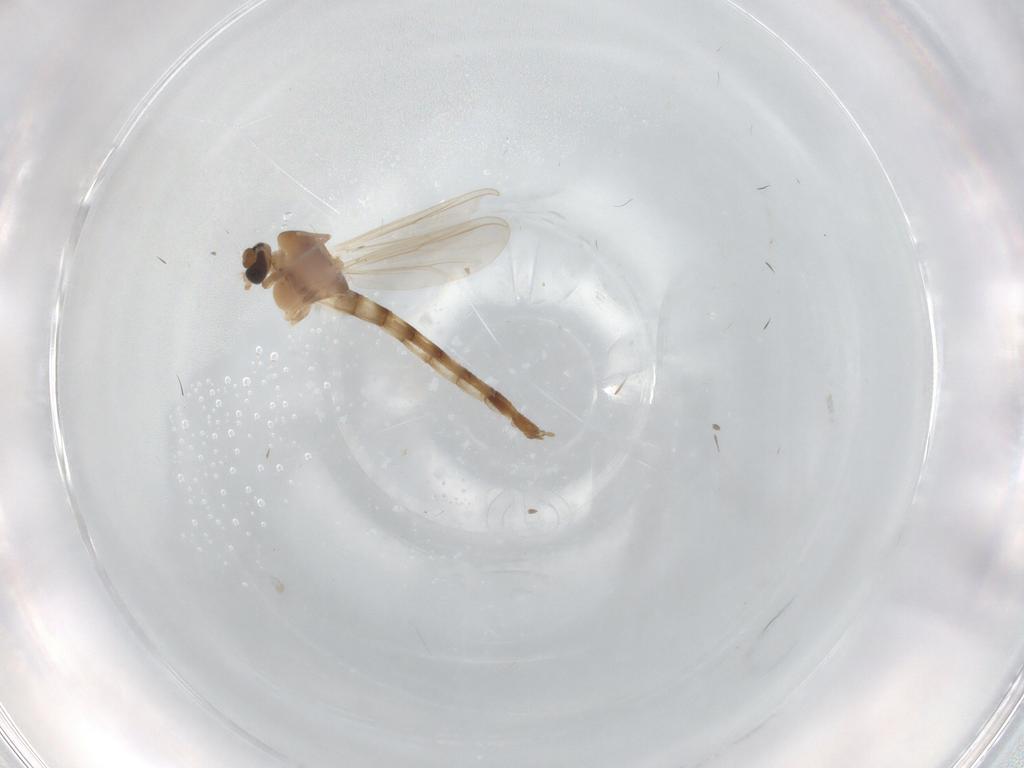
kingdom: Animalia
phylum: Arthropoda
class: Insecta
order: Diptera
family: Chironomidae
